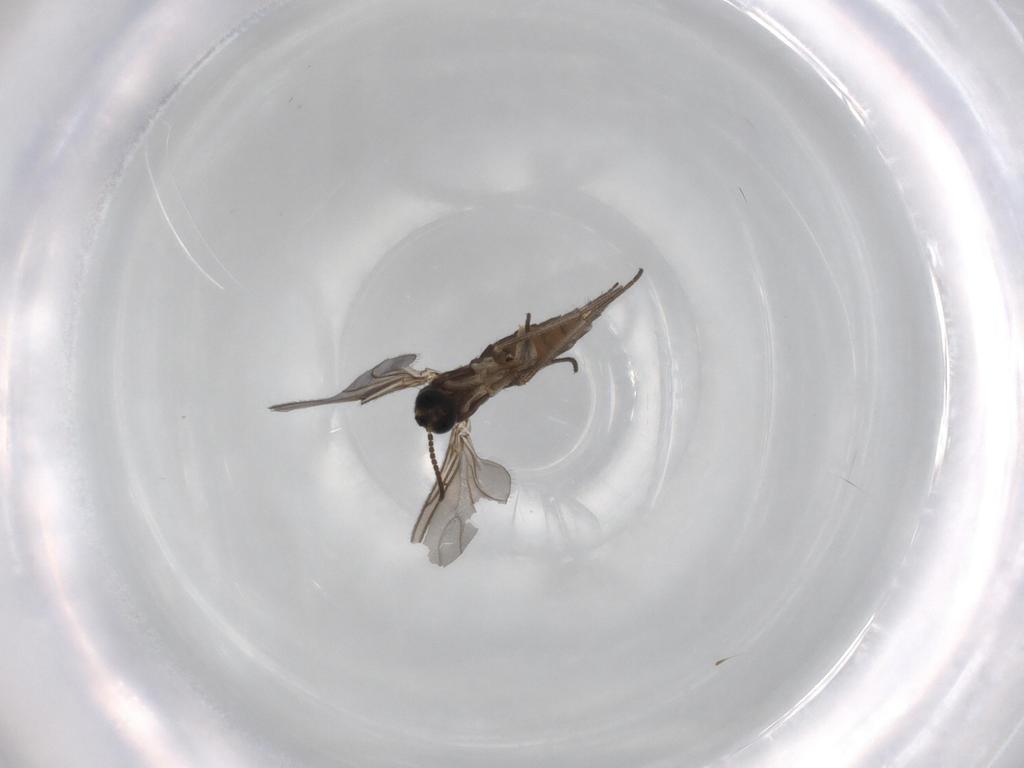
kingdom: Animalia
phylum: Arthropoda
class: Insecta
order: Diptera
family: Sciaridae
